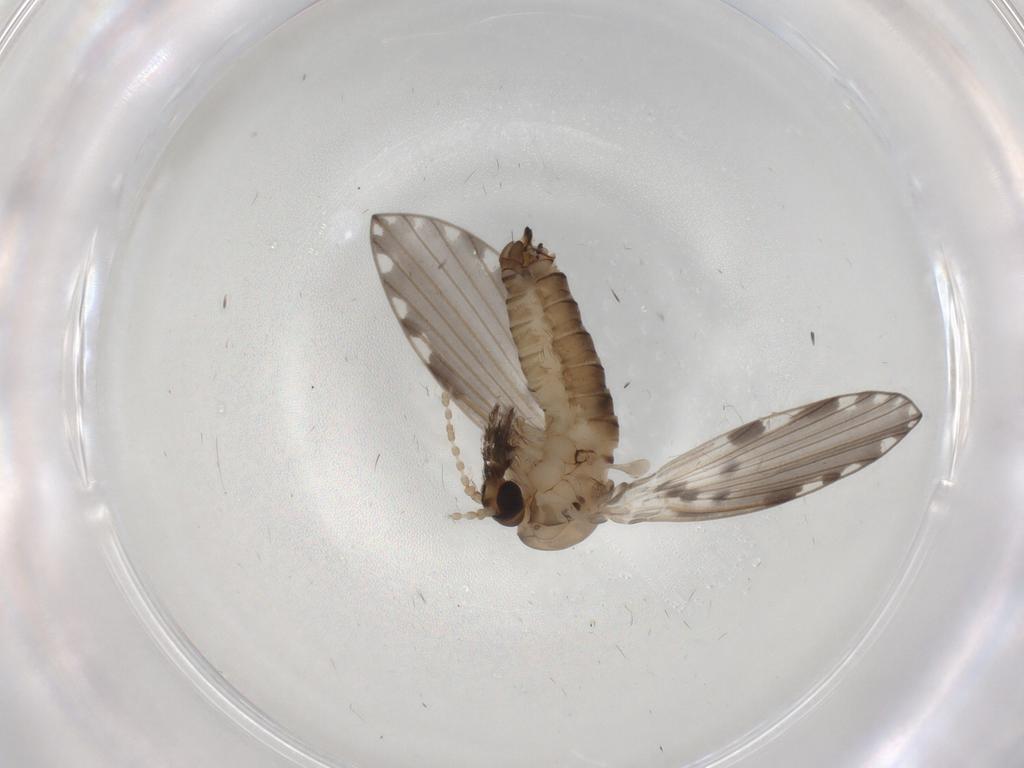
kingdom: Animalia
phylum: Arthropoda
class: Insecta
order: Diptera
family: Psychodidae
